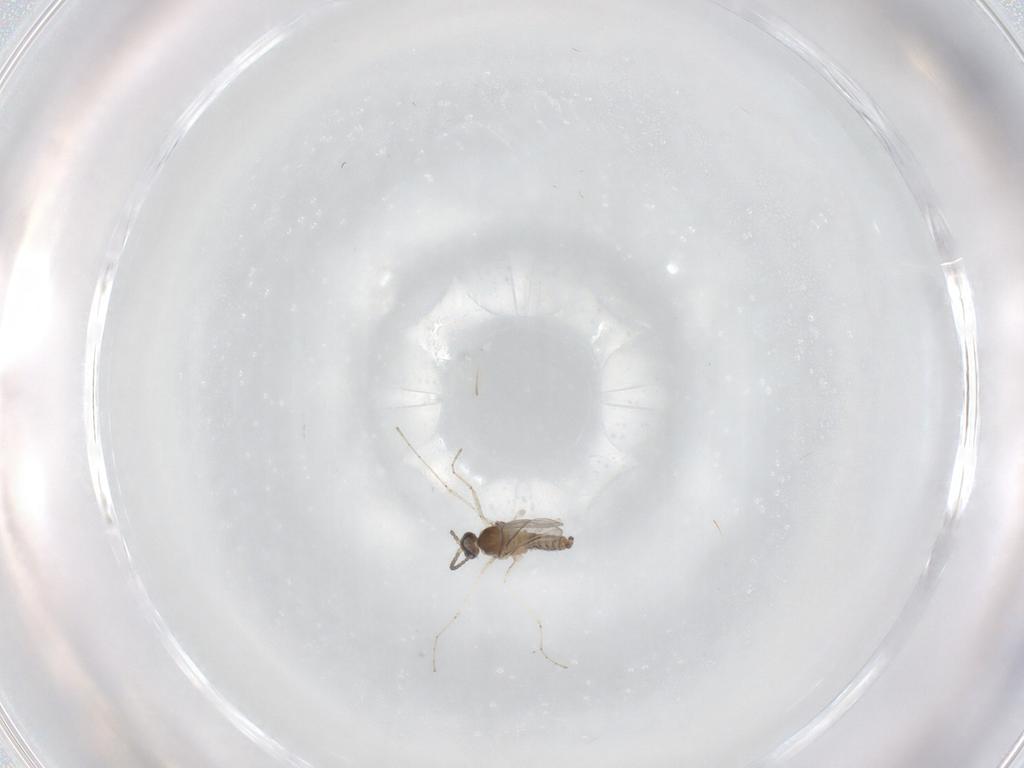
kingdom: Animalia
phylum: Arthropoda
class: Insecta
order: Diptera
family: Cecidomyiidae
